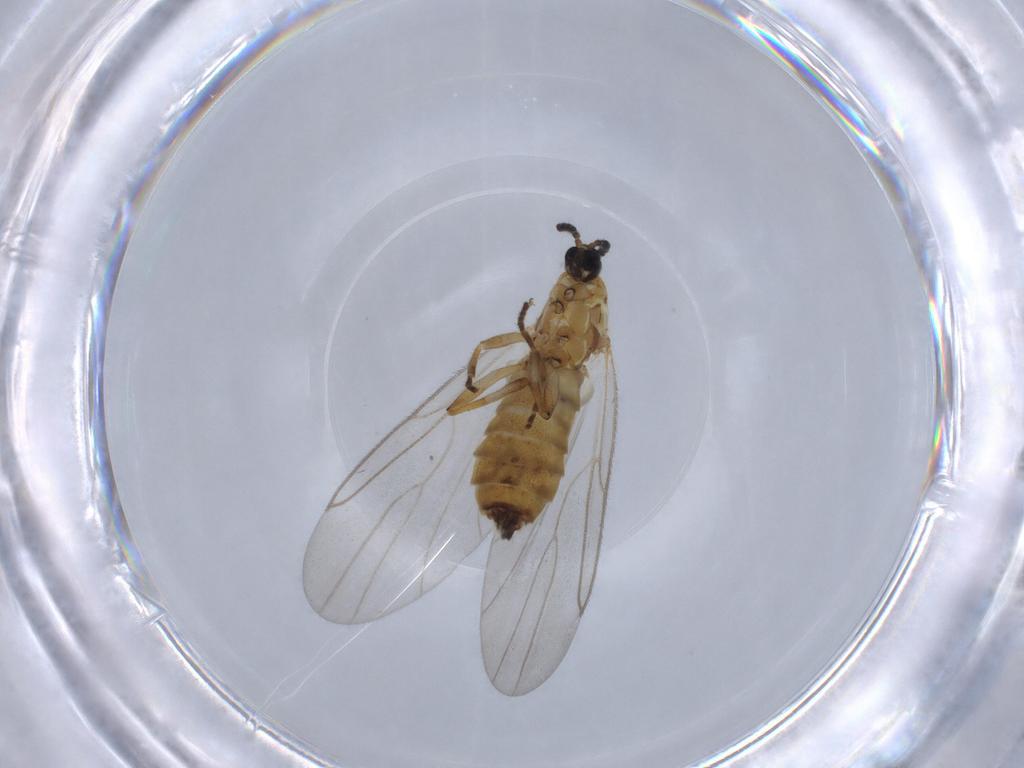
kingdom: Animalia
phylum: Arthropoda
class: Insecta
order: Diptera
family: Psychodidae
